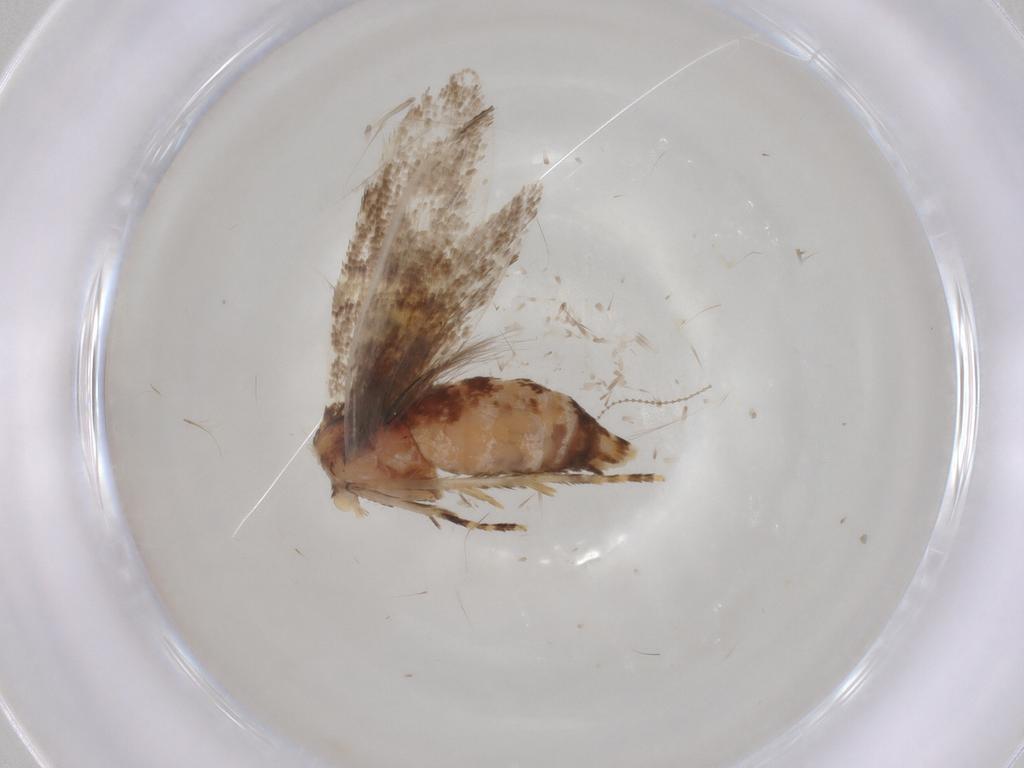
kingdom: Animalia
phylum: Arthropoda
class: Insecta
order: Lepidoptera
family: Oecophoridae
